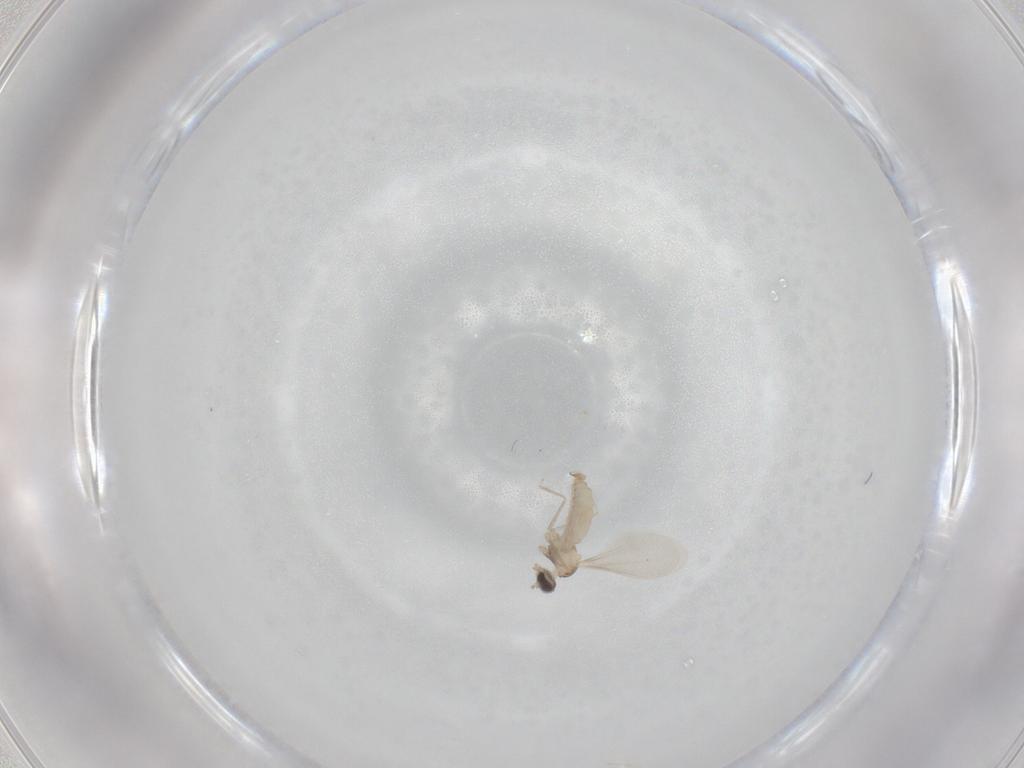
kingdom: Animalia
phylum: Arthropoda
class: Insecta
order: Diptera
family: Cecidomyiidae
